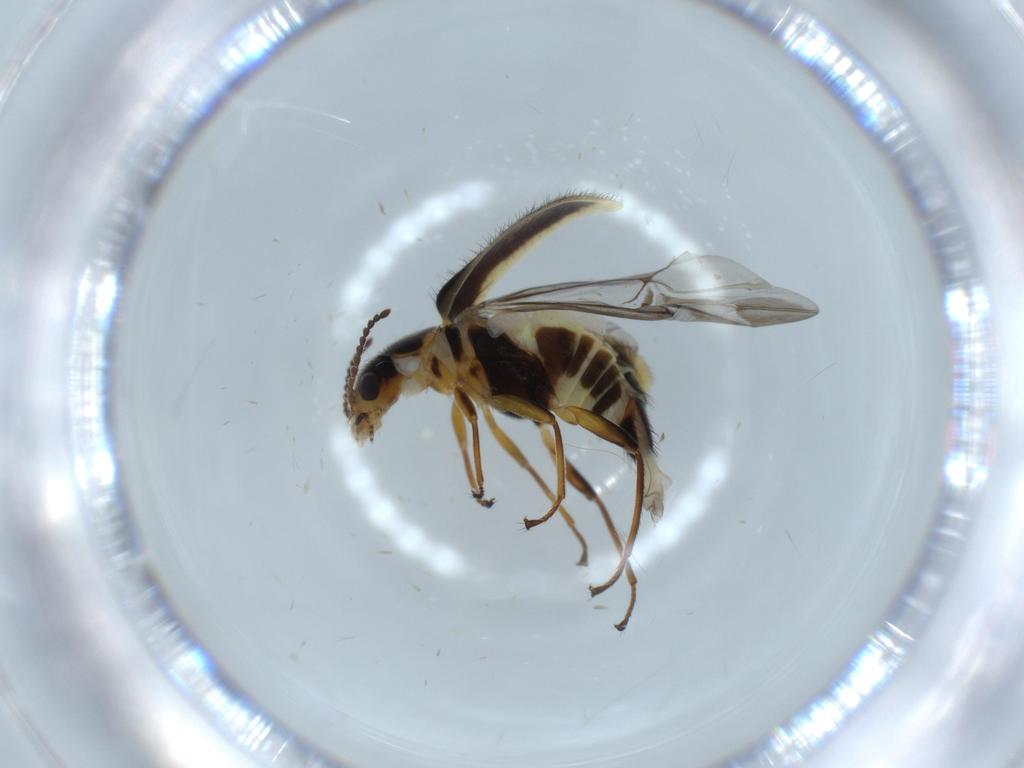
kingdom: Animalia
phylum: Arthropoda
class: Insecta
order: Coleoptera
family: Melyridae
